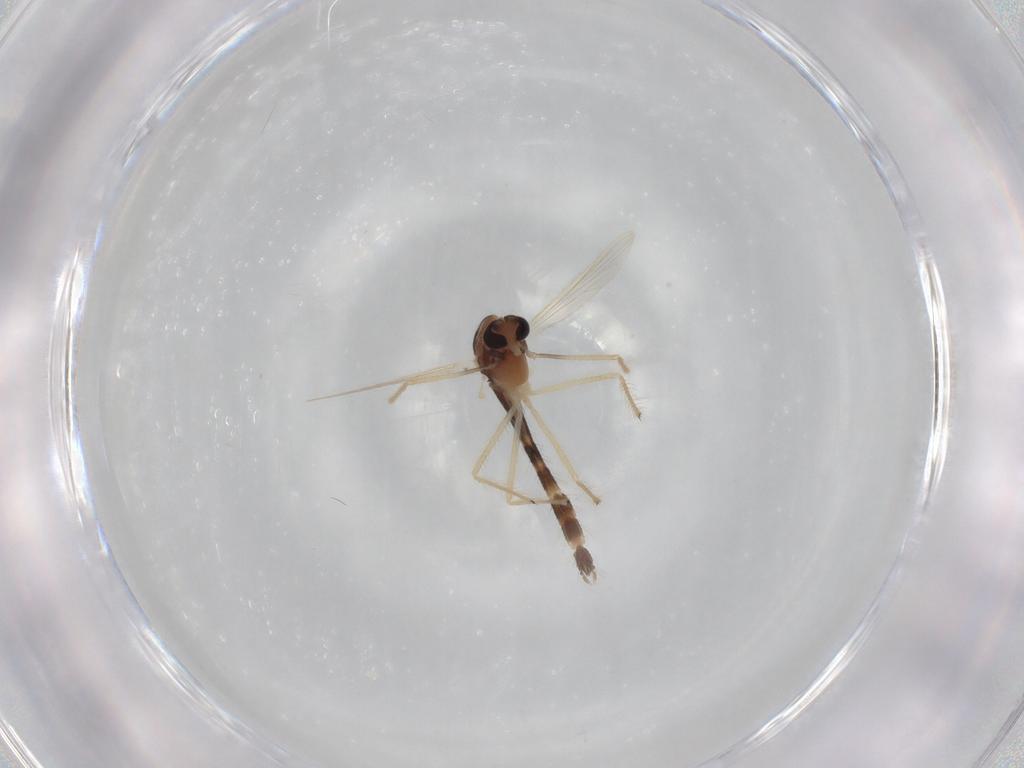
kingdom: Animalia
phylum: Arthropoda
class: Insecta
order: Diptera
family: Chironomidae
